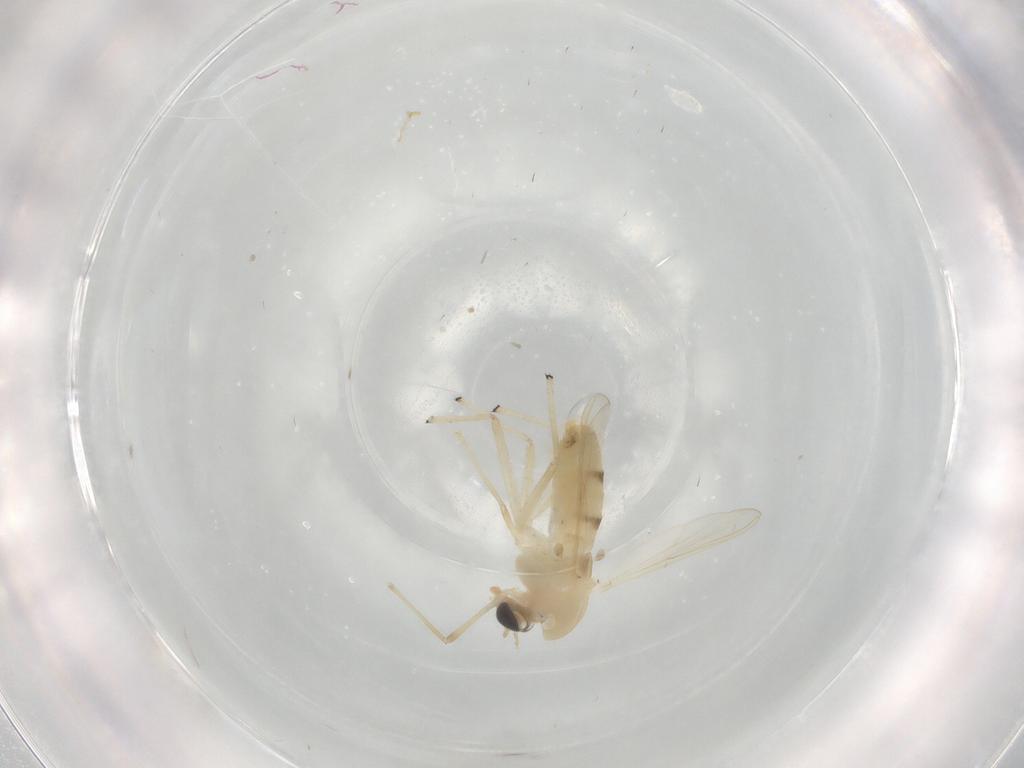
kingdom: Animalia
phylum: Arthropoda
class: Insecta
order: Diptera
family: Chironomidae
